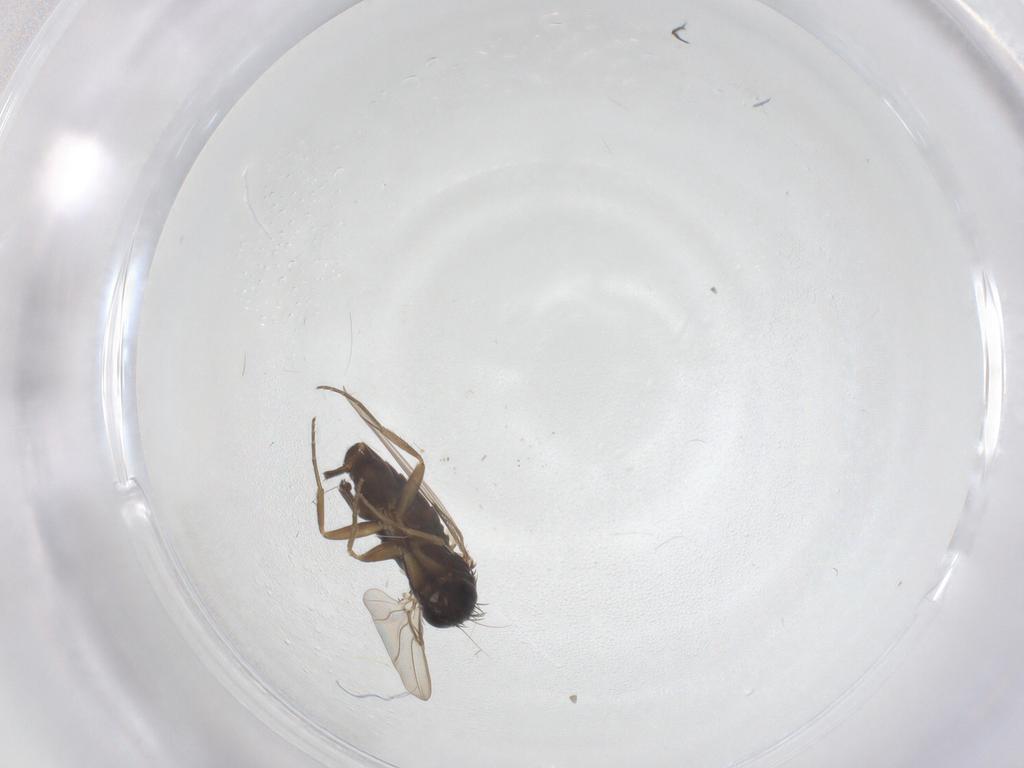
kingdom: Animalia
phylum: Arthropoda
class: Insecta
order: Diptera
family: Phoridae
